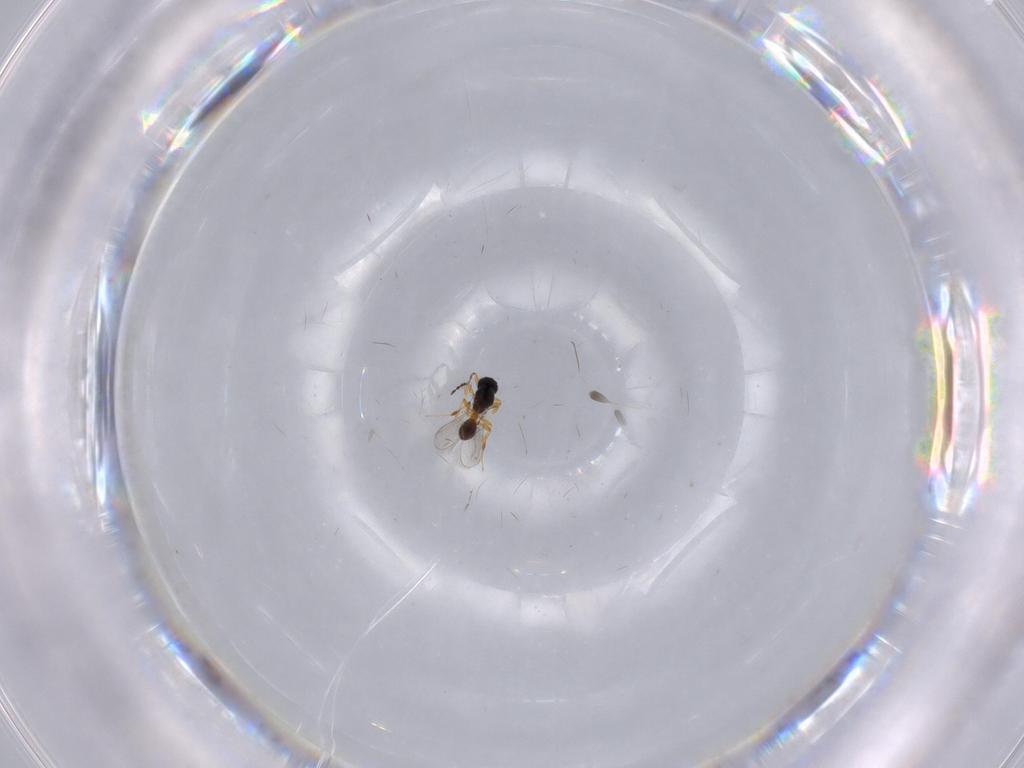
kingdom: Animalia
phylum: Arthropoda
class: Insecta
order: Hymenoptera
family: Platygastridae
